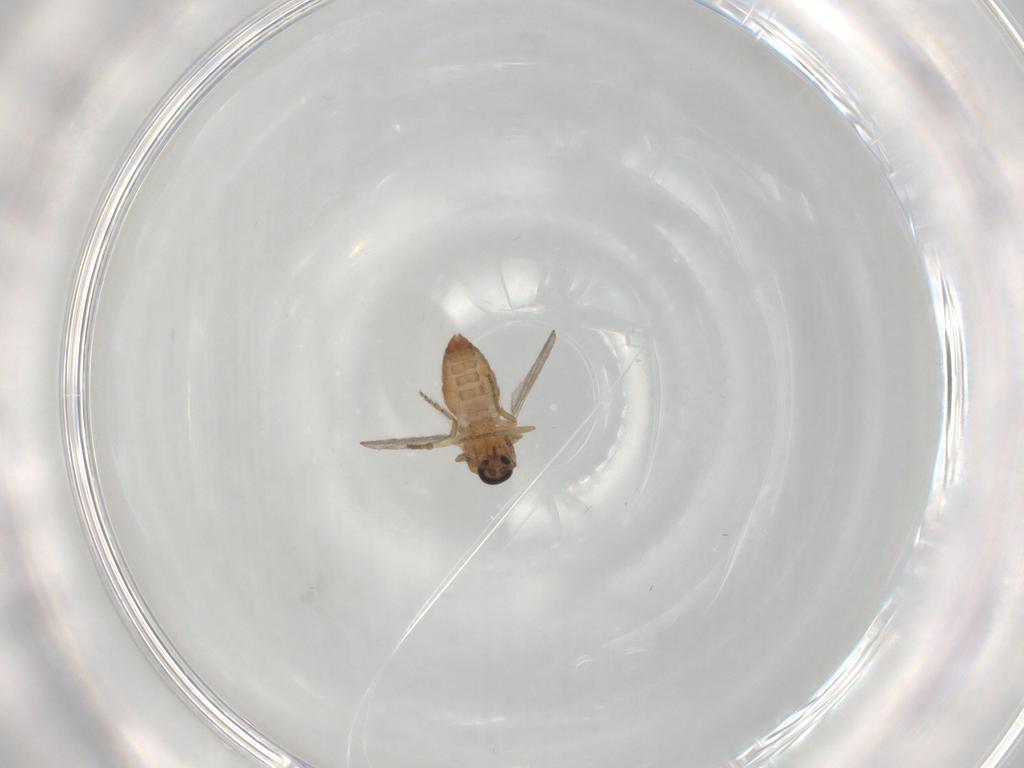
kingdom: Animalia
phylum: Arthropoda
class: Insecta
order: Diptera
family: Ceratopogonidae
